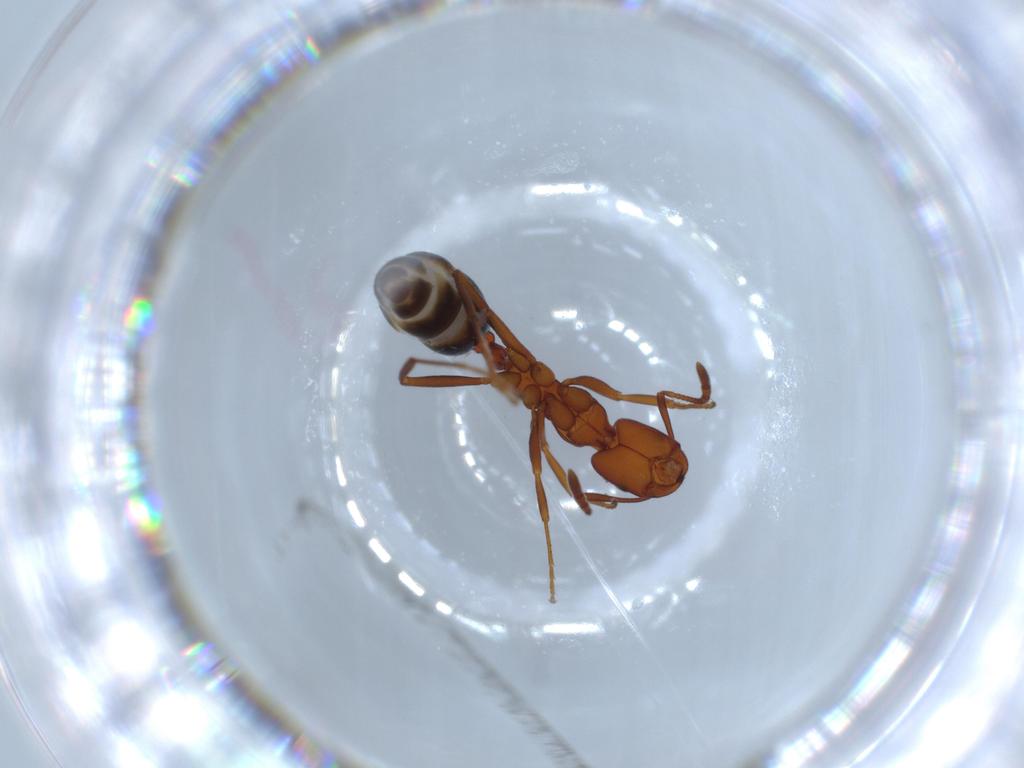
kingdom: Animalia
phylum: Arthropoda
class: Insecta
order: Hymenoptera
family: Formicidae
